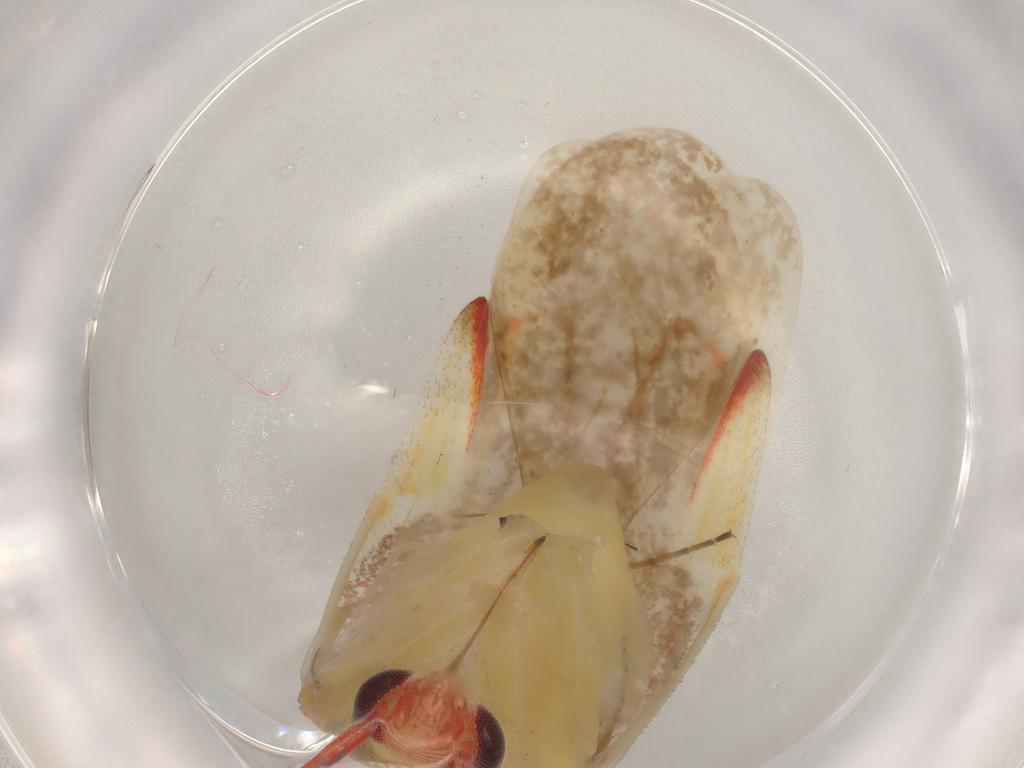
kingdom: Animalia
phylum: Arthropoda
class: Insecta
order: Hemiptera
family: Miridae
